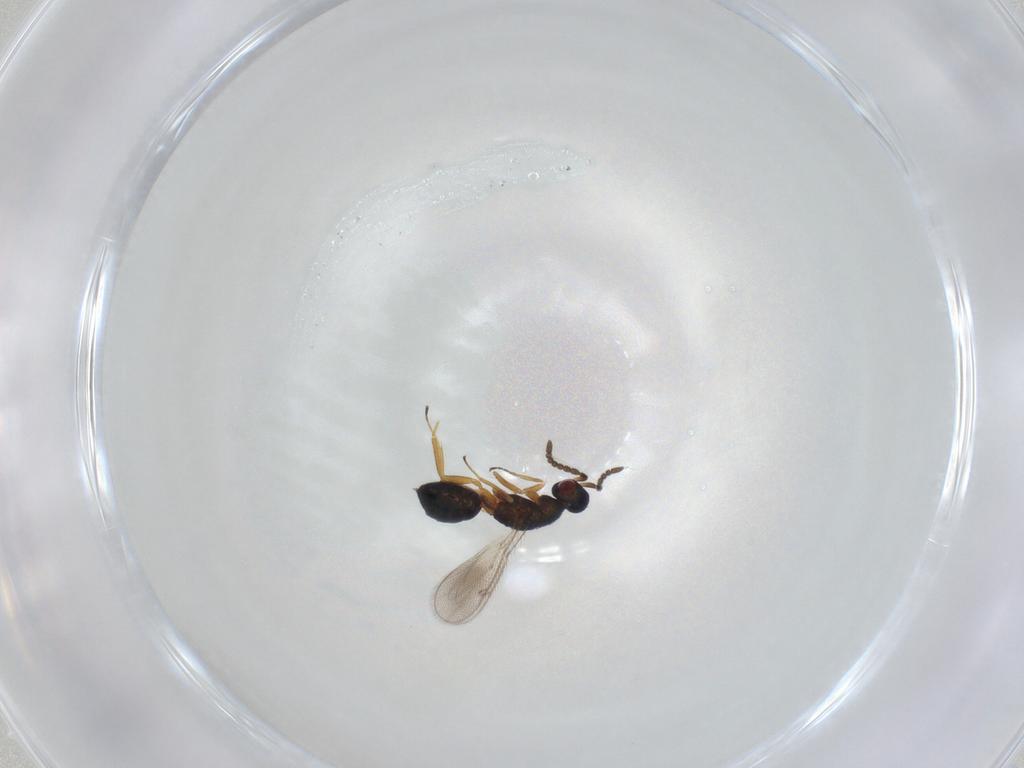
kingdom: Animalia
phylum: Arthropoda
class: Insecta
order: Hymenoptera
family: Tetracampidae
